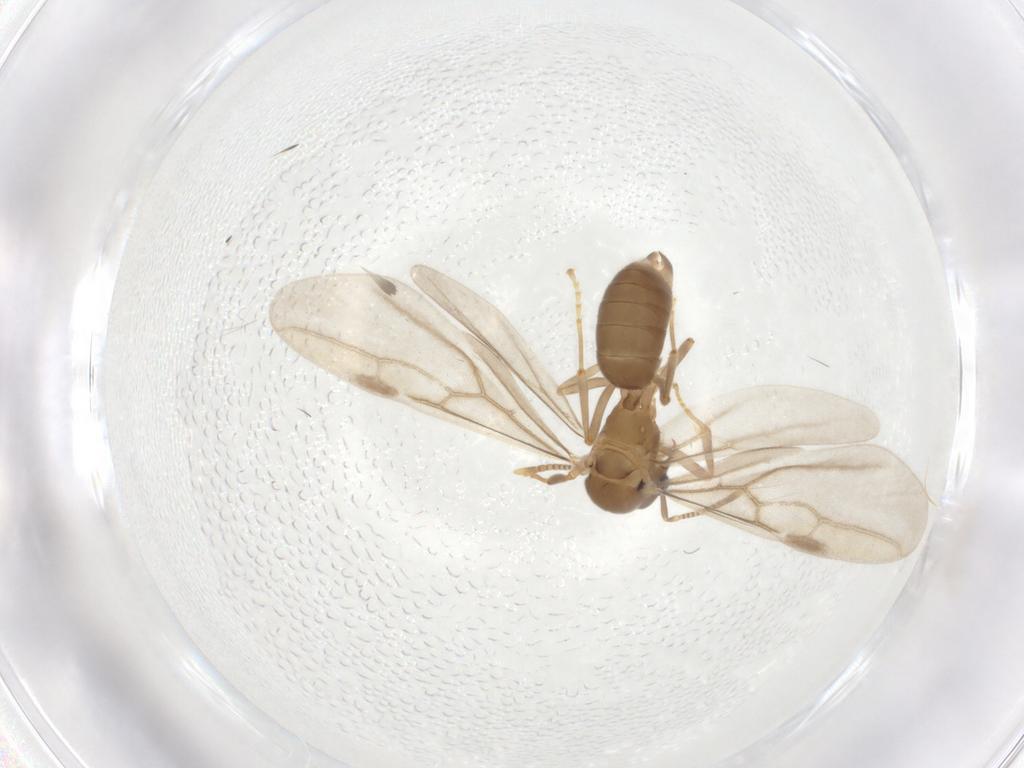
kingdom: Animalia
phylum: Arthropoda
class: Insecta
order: Hymenoptera
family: Formicidae
